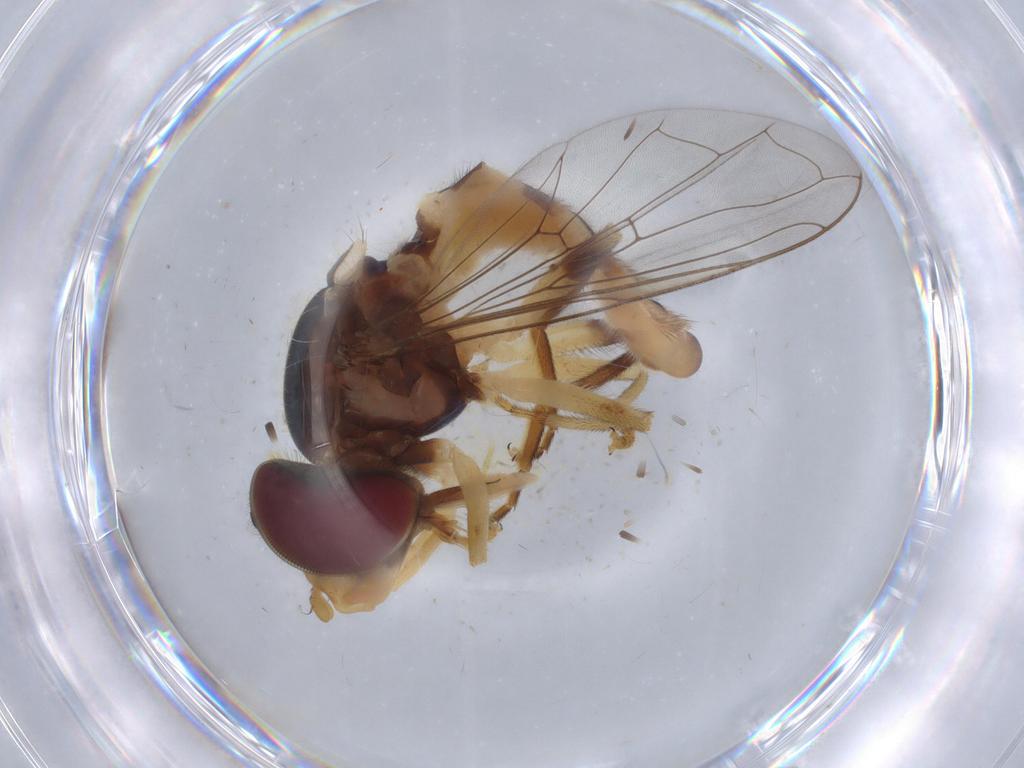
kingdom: Animalia
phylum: Arthropoda
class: Insecta
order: Diptera
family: Syrphidae
